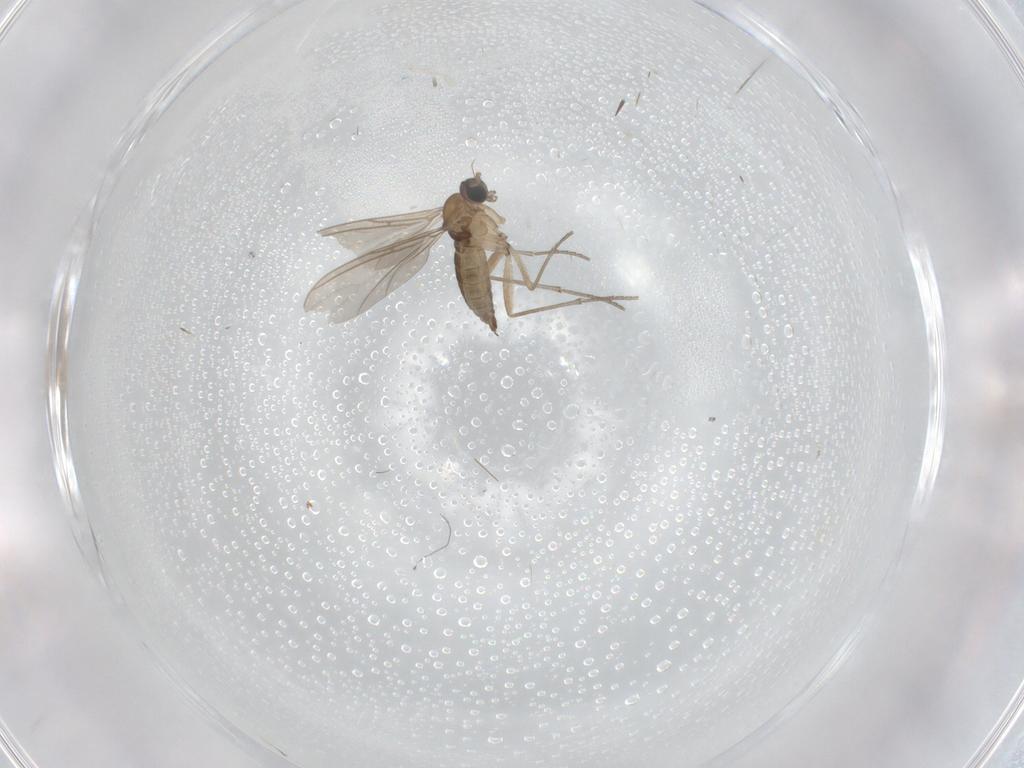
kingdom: Animalia
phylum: Arthropoda
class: Insecta
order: Diptera
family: Sciaridae
